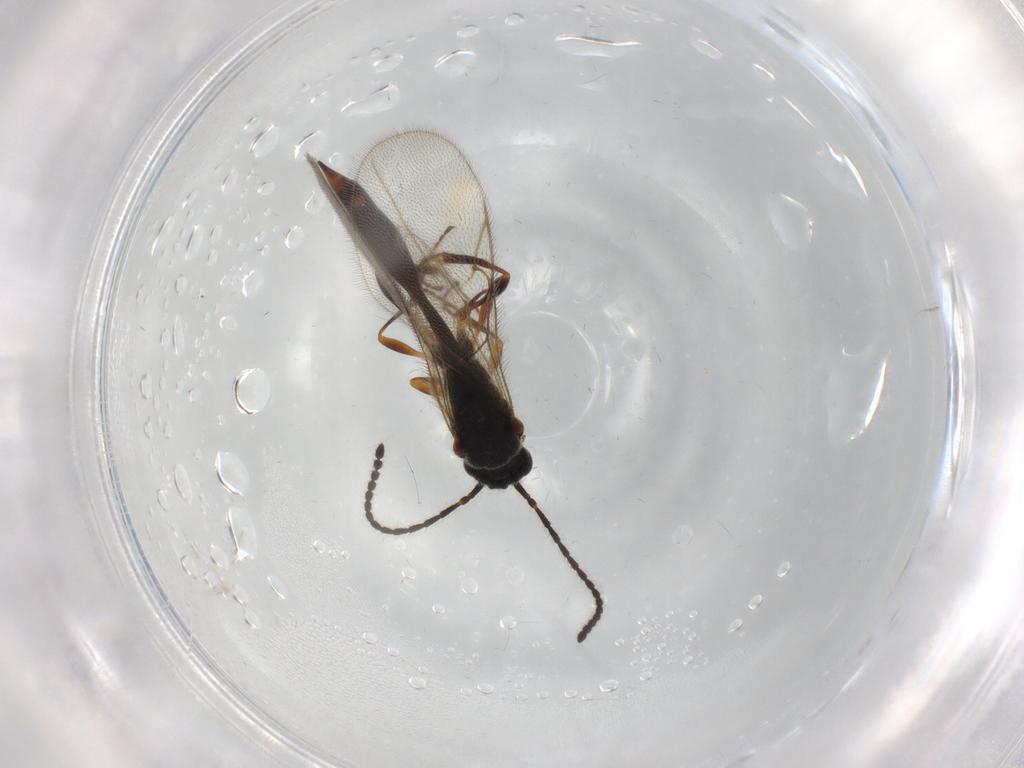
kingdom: Animalia
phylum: Arthropoda
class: Insecta
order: Hymenoptera
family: Diapriidae
